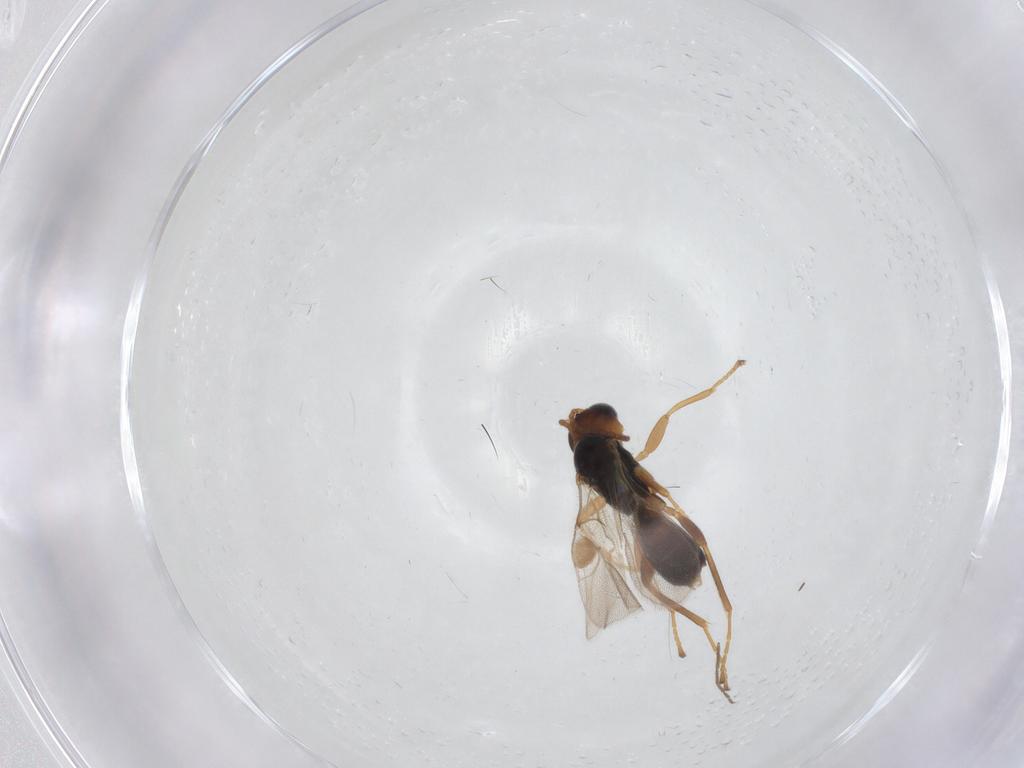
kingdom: Animalia
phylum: Arthropoda
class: Insecta
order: Hymenoptera
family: Braconidae
